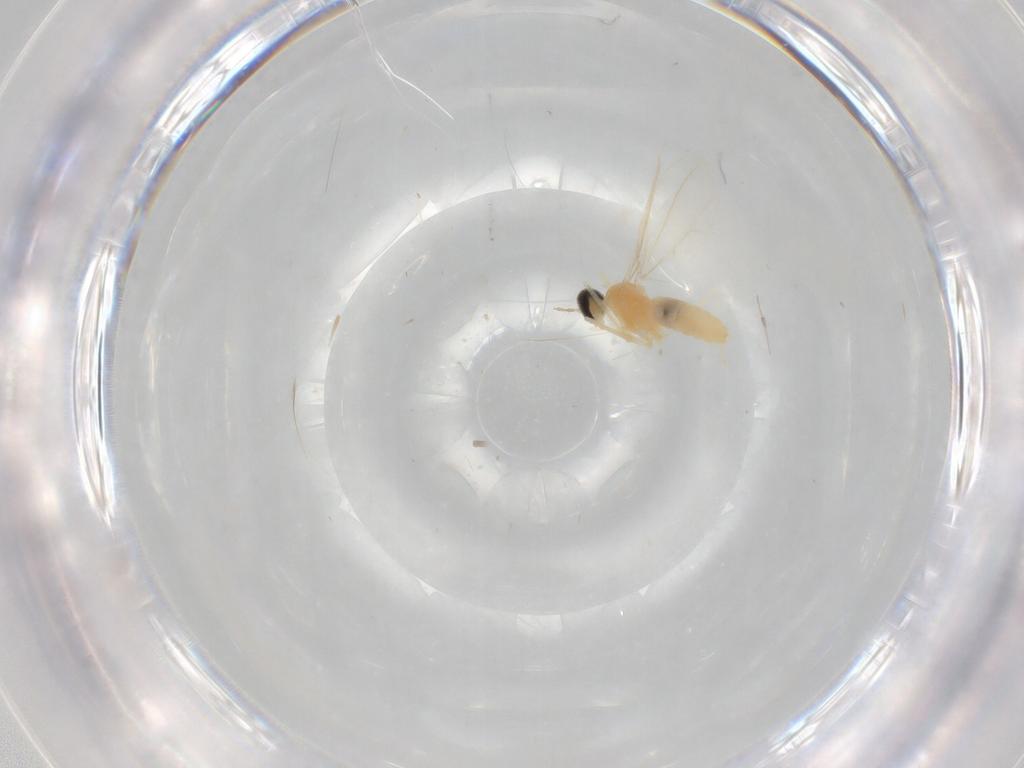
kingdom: Animalia
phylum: Arthropoda
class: Insecta
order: Diptera
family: Cecidomyiidae
